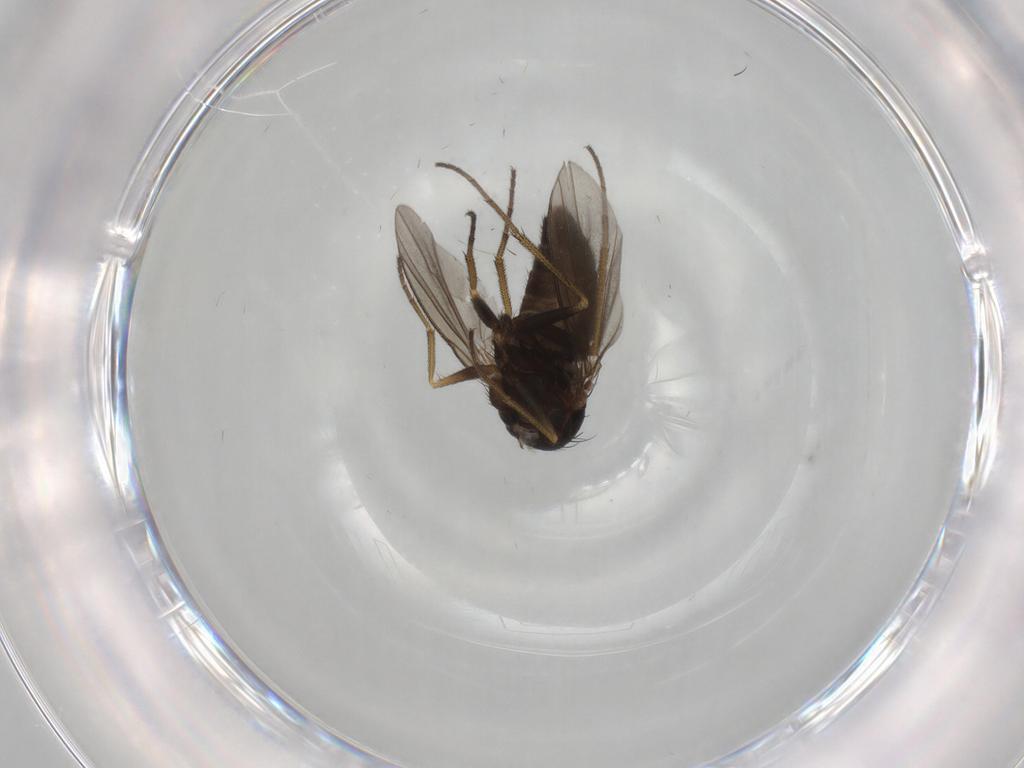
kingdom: Animalia
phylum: Arthropoda
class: Insecta
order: Diptera
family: Dolichopodidae
